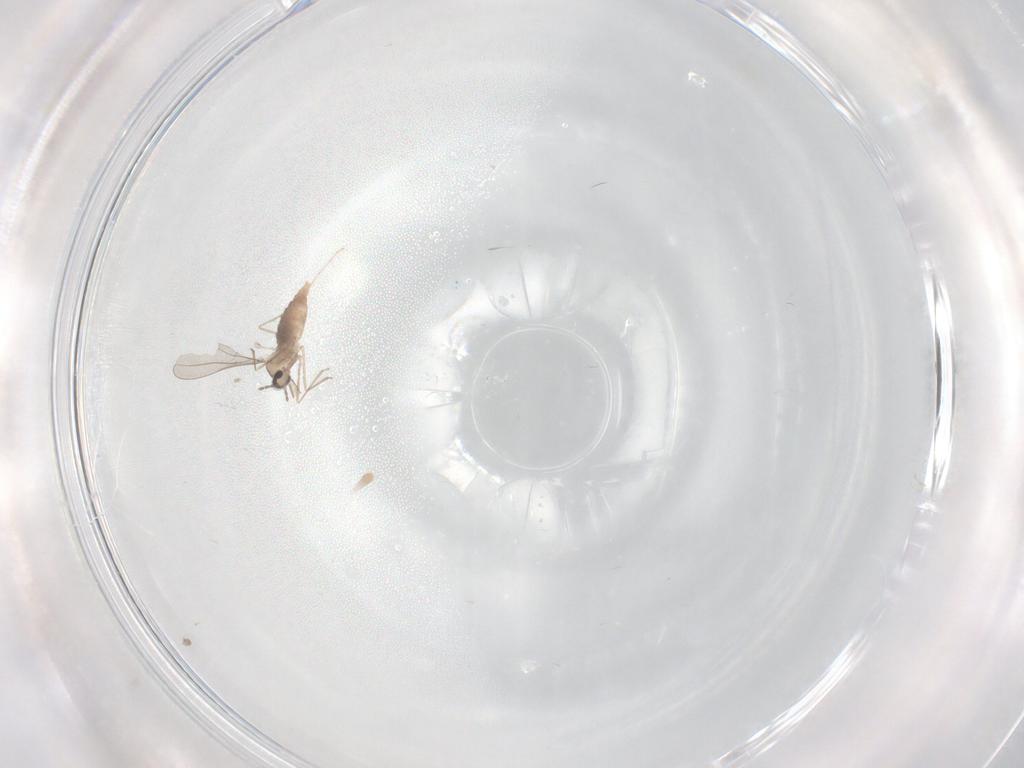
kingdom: Animalia
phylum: Arthropoda
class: Insecta
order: Diptera
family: Cecidomyiidae
